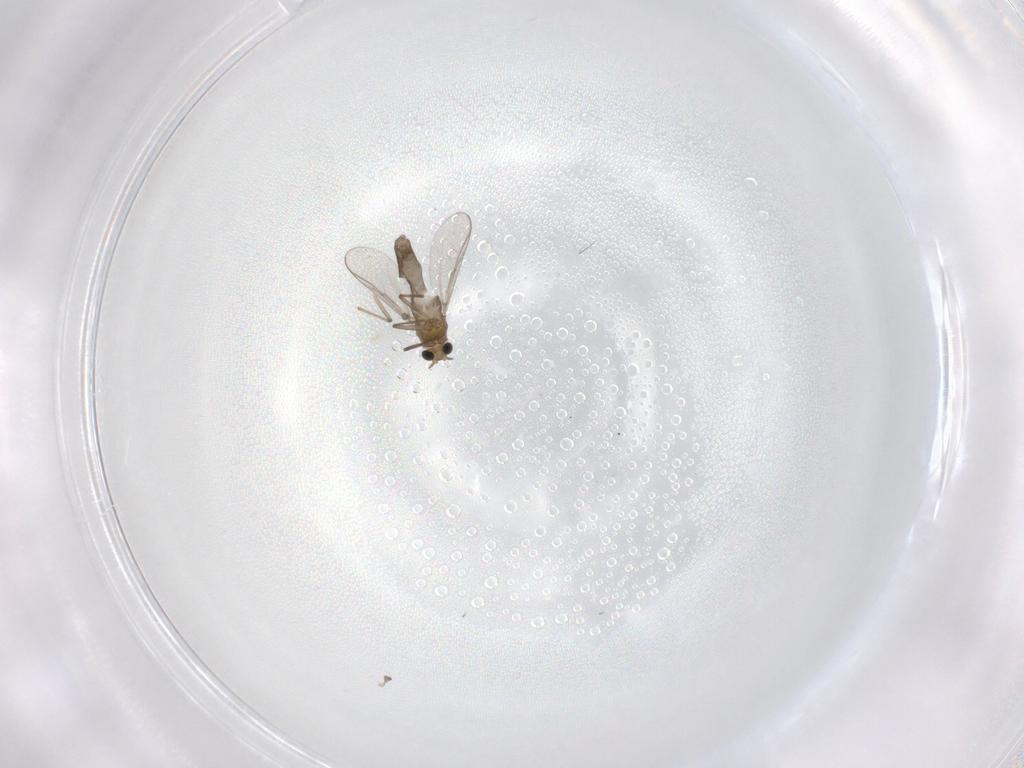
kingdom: Animalia
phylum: Arthropoda
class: Insecta
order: Diptera
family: Chironomidae
